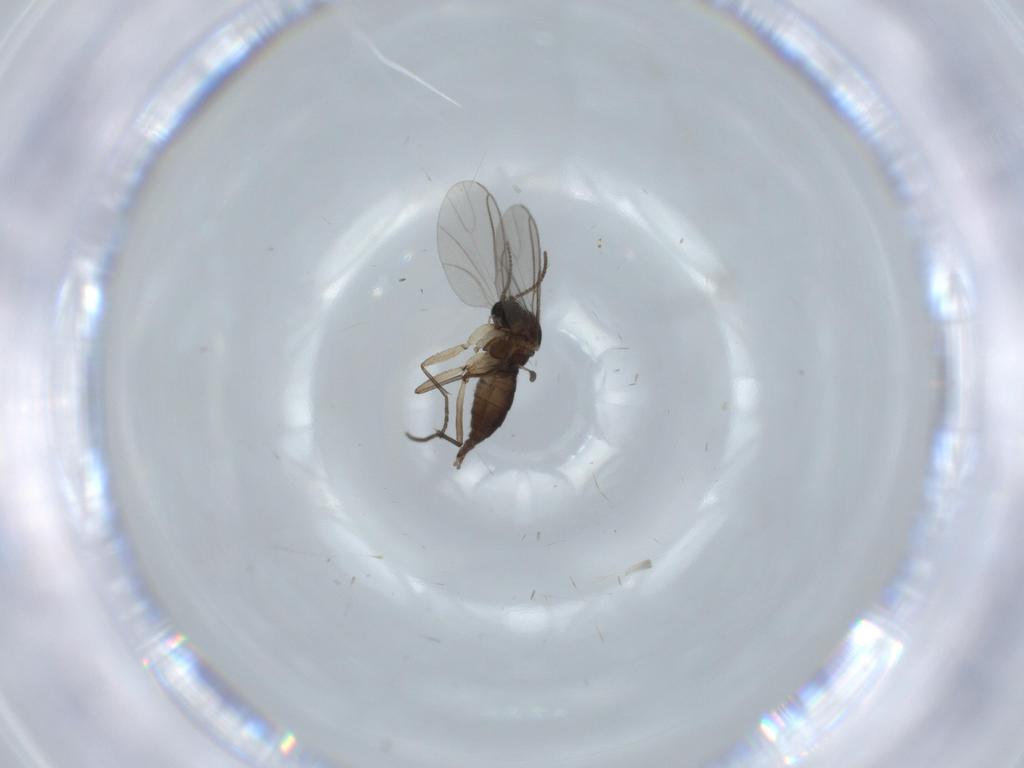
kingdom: Animalia
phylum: Arthropoda
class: Insecta
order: Diptera
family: Sciaridae
